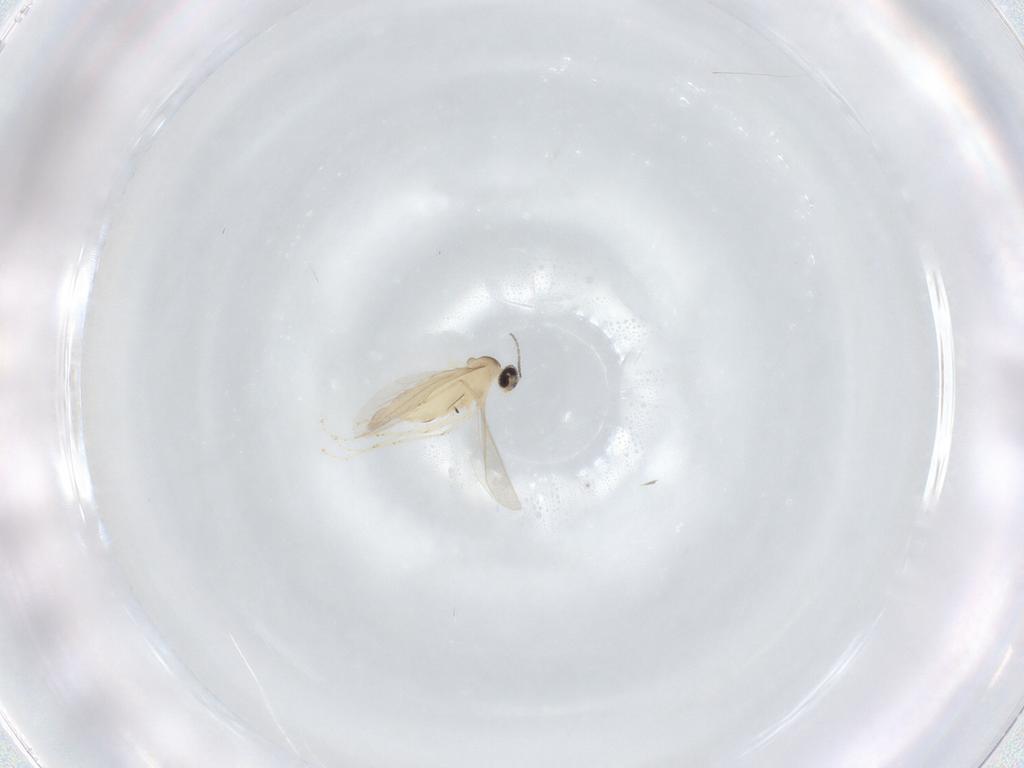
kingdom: Animalia
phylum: Arthropoda
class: Insecta
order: Diptera
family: Cecidomyiidae
